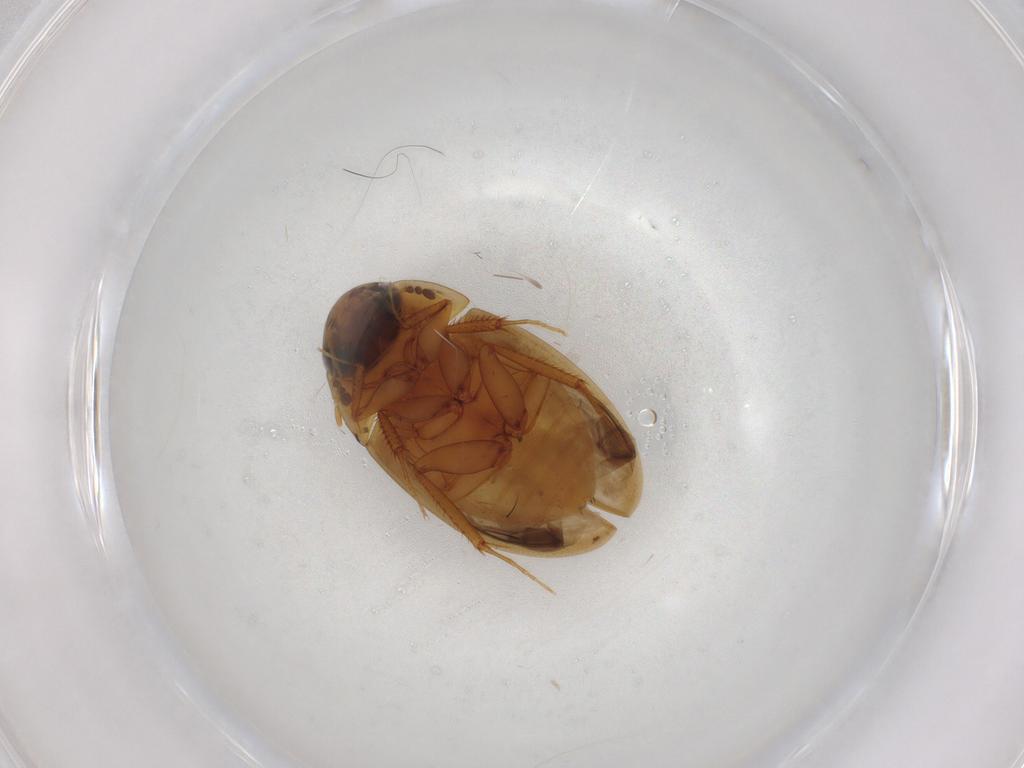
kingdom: Animalia
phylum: Arthropoda
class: Insecta
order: Coleoptera
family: Hydrophilidae
